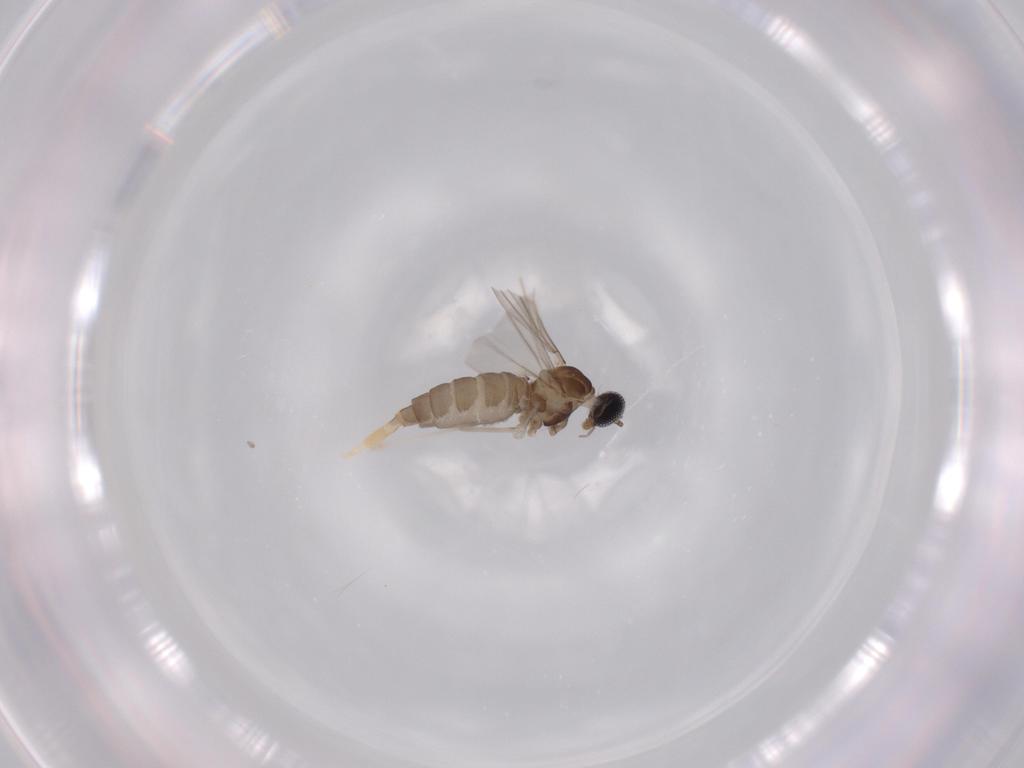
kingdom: Animalia
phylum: Arthropoda
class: Insecta
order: Diptera
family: Cecidomyiidae
